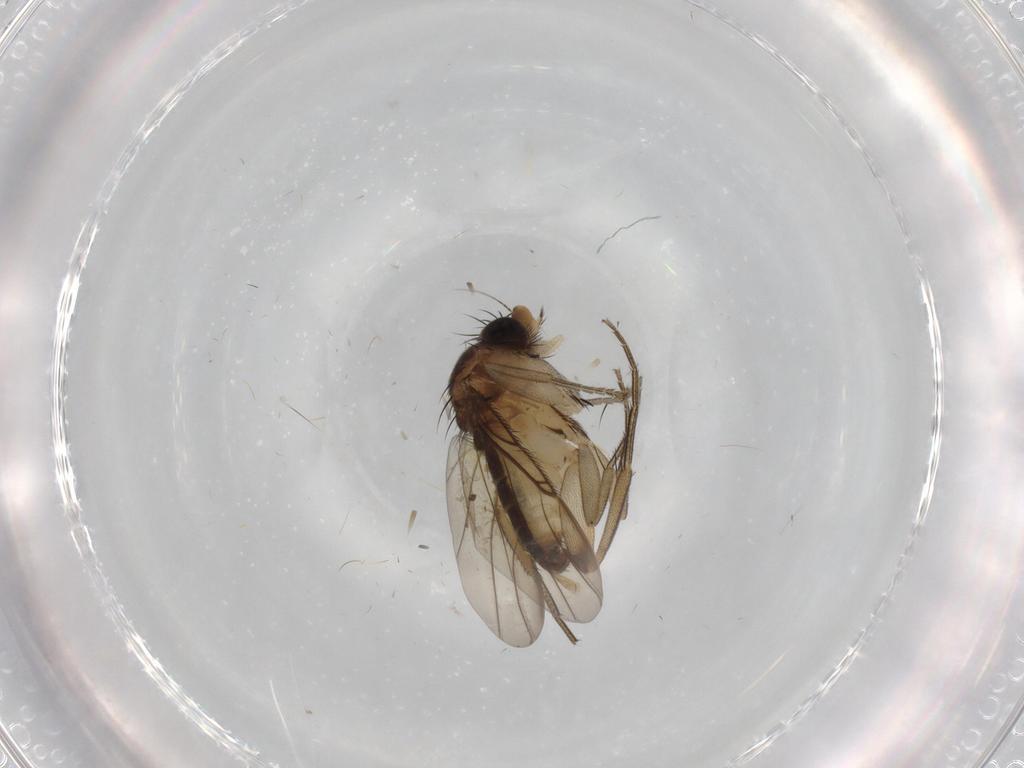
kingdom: Animalia
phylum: Arthropoda
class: Insecta
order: Diptera
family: Phoridae
